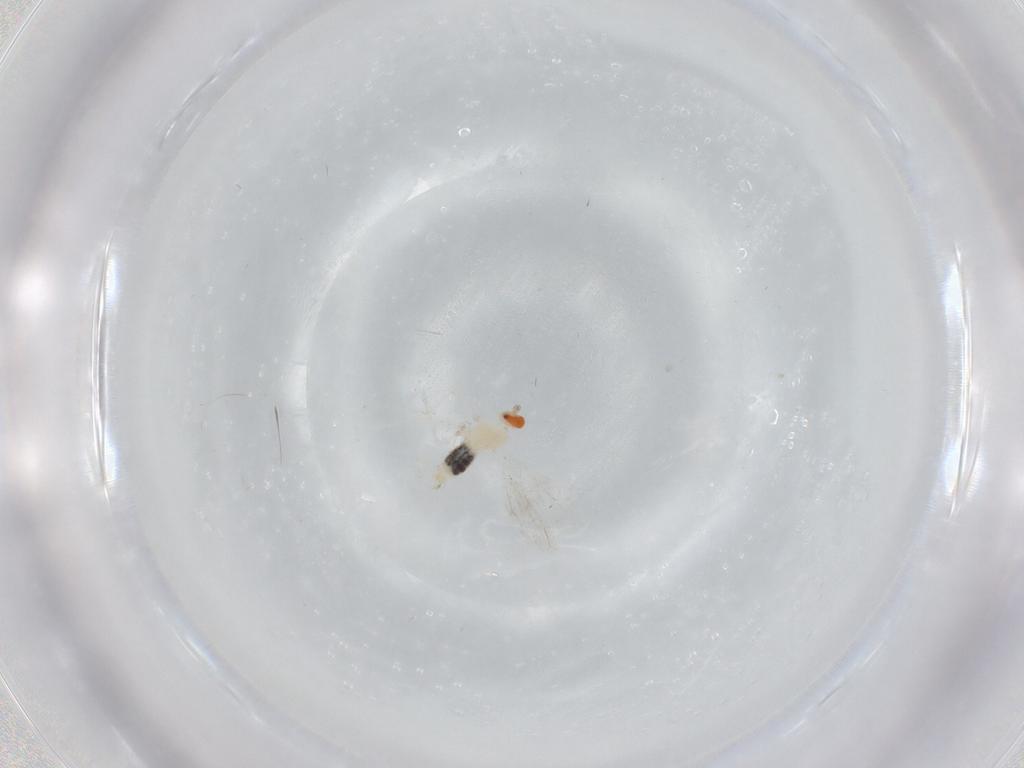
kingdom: Animalia
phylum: Arthropoda
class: Insecta
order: Diptera
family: Cecidomyiidae
